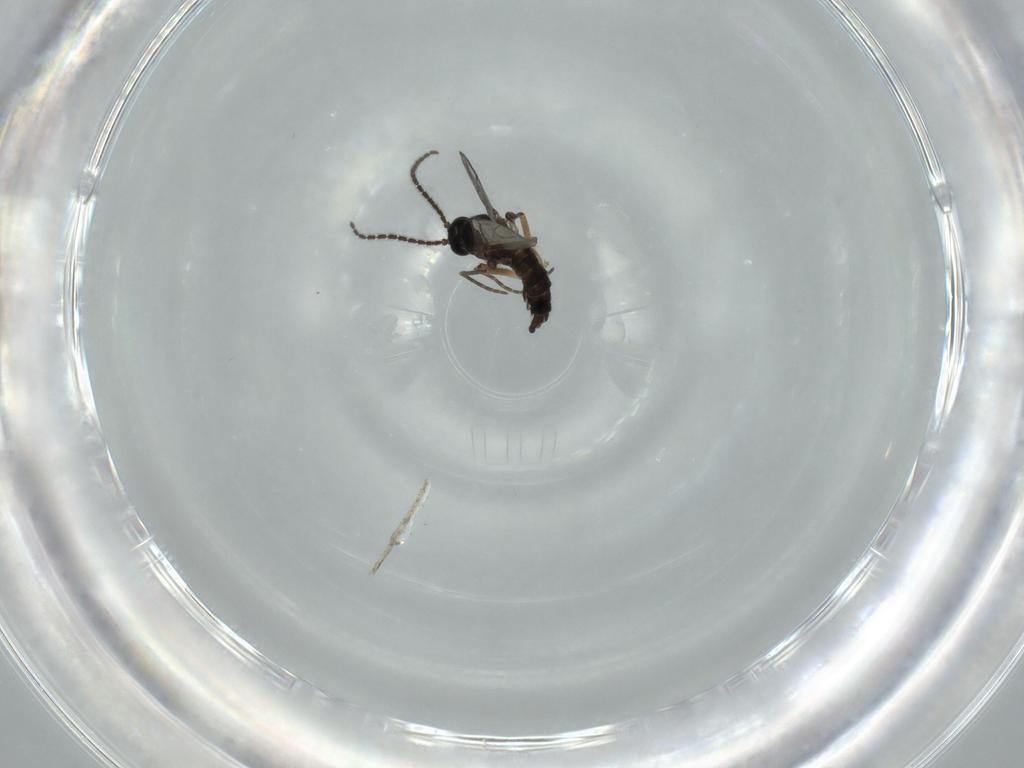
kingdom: Animalia
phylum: Arthropoda
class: Insecta
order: Diptera
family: Sciaridae
